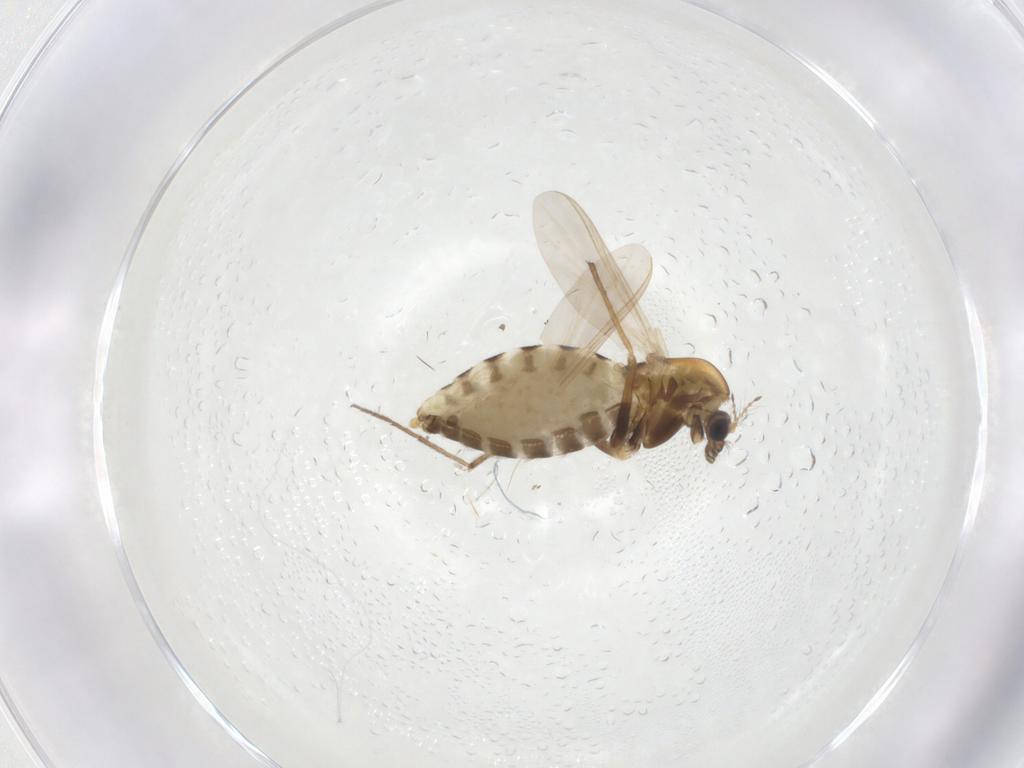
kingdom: Animalia
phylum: Arthropoda
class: Insecta
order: Diptera
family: Chironomidae
